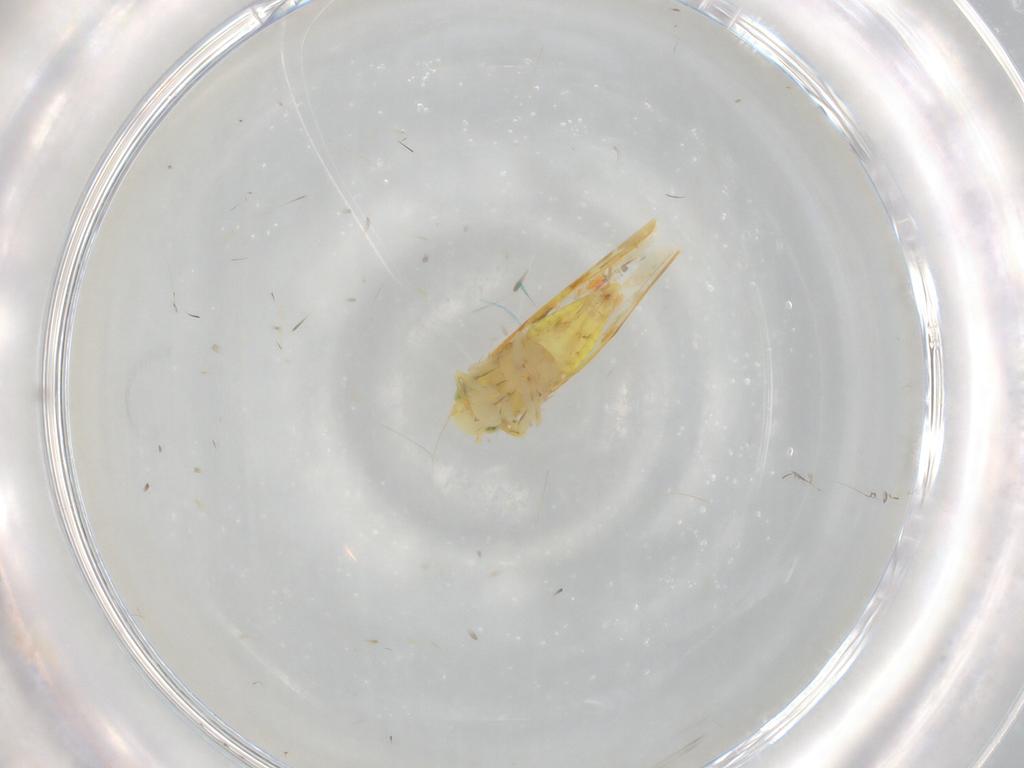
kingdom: Animalia
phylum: Arthropoda
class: Insecta
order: Hemiptera
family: Cicadellidae
